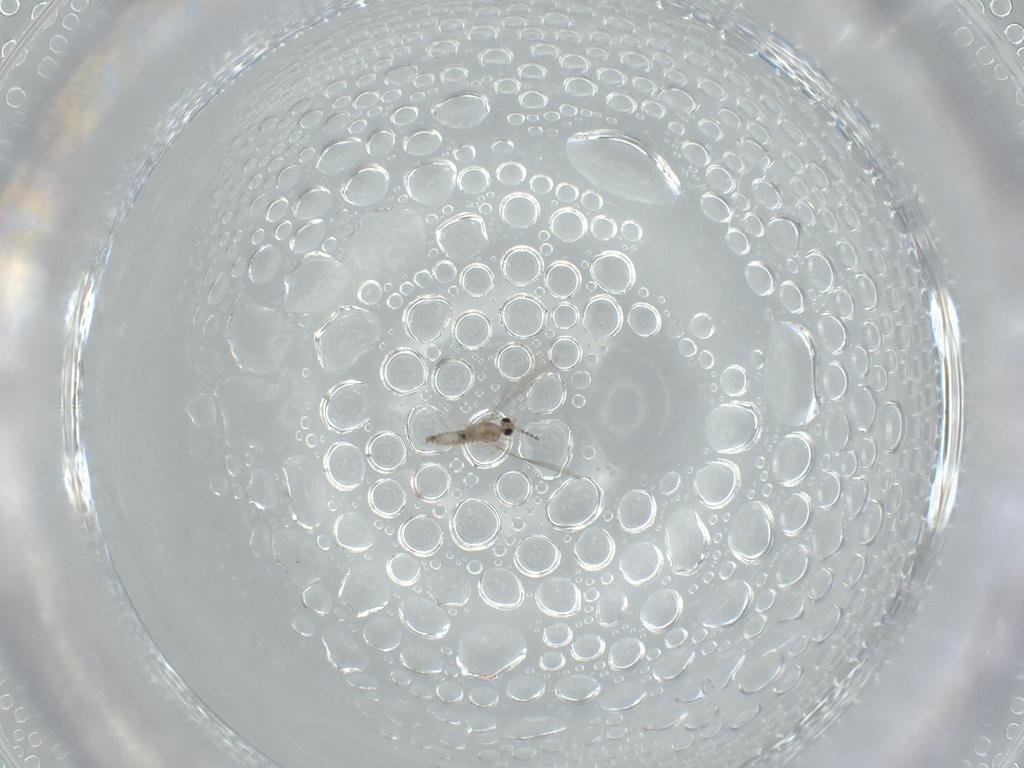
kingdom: Animalia
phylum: Arthropoda
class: Insecta
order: Diptera
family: Cecidomyiidae
